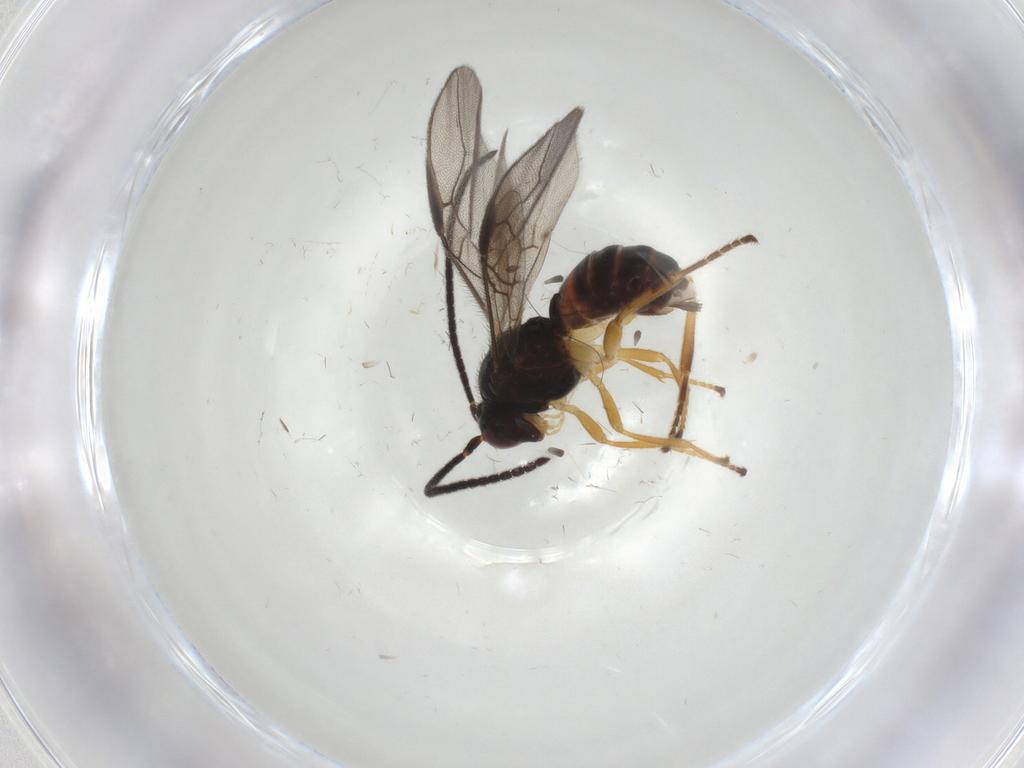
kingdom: Animalia
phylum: Arthropoda
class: Insecta
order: Hymenoptera
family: Braconidae
